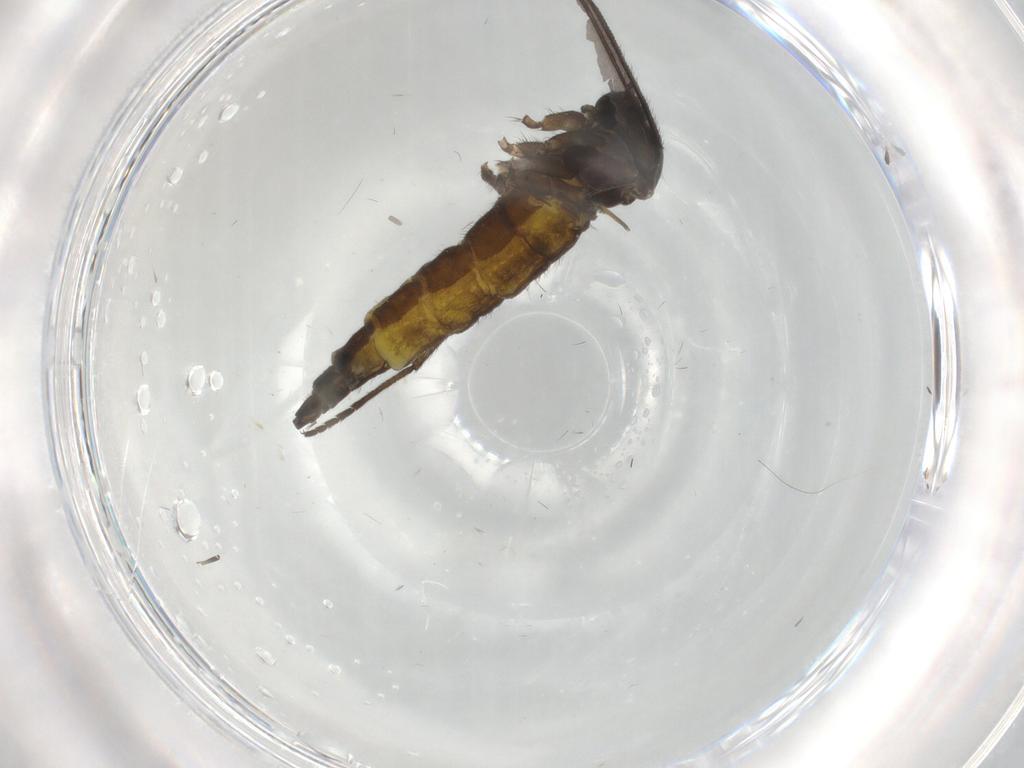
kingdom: Animalia
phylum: Arthropoda
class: Insecta
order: Diptera
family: Sciaridae
